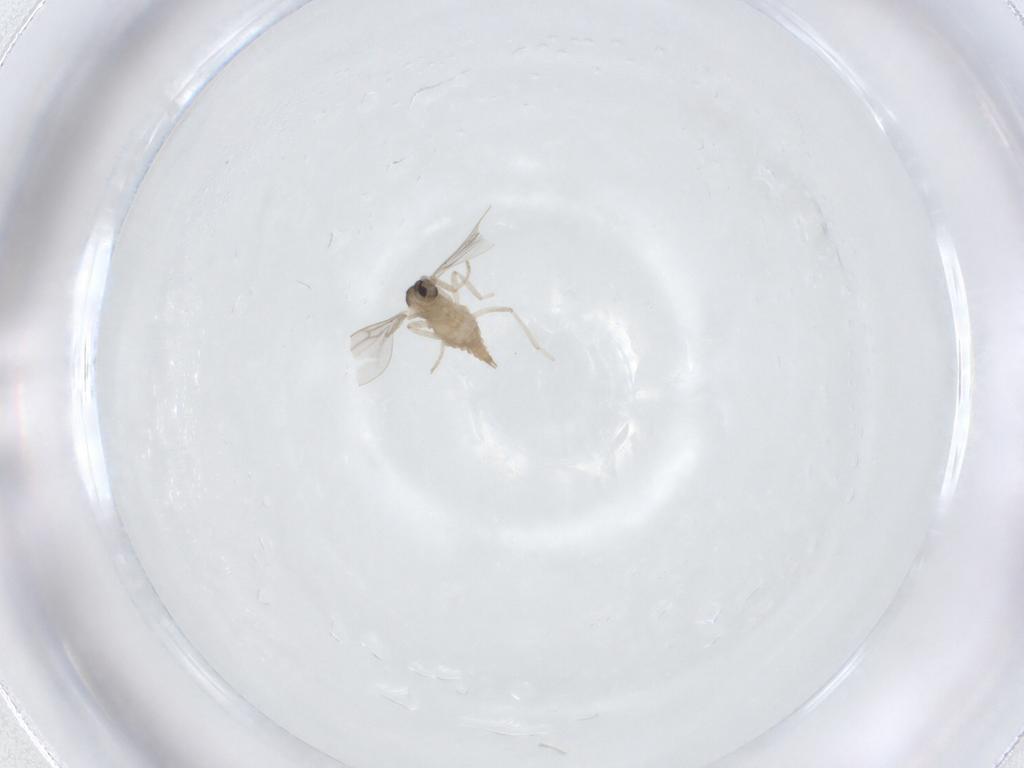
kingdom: Animalia
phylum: Arthropoda
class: Insecta
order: Diptera
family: Cecidomyiidae
